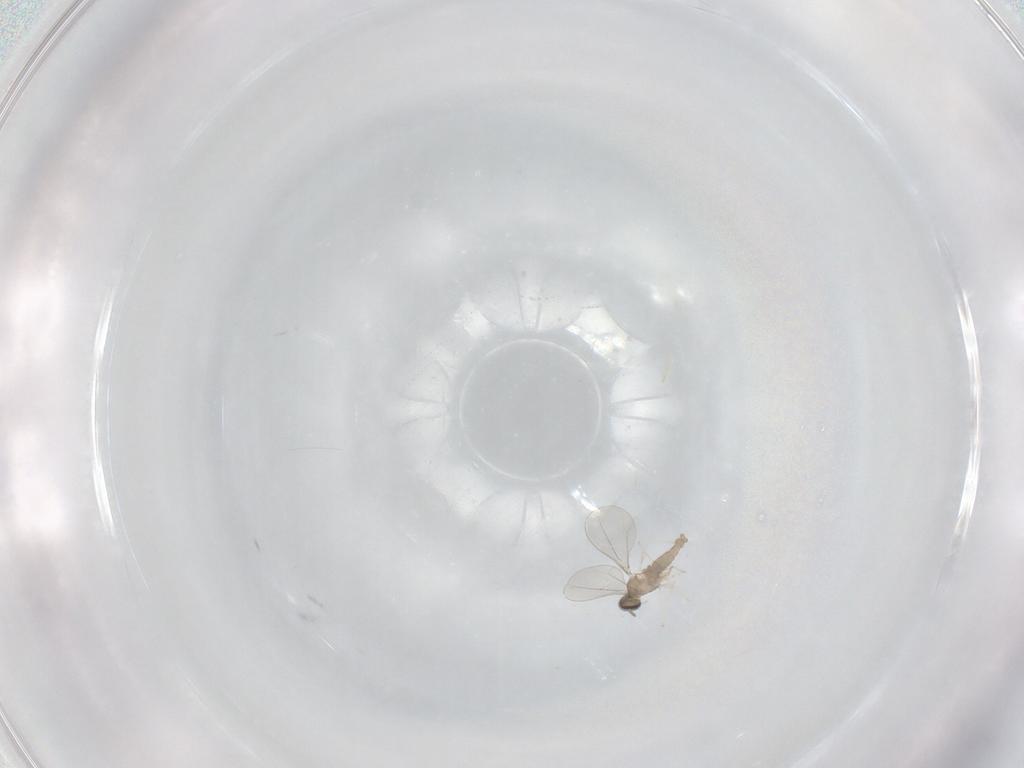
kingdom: Animalia
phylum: Arthropoda
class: Insecta
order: Diptera
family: Cecidomyiidae
